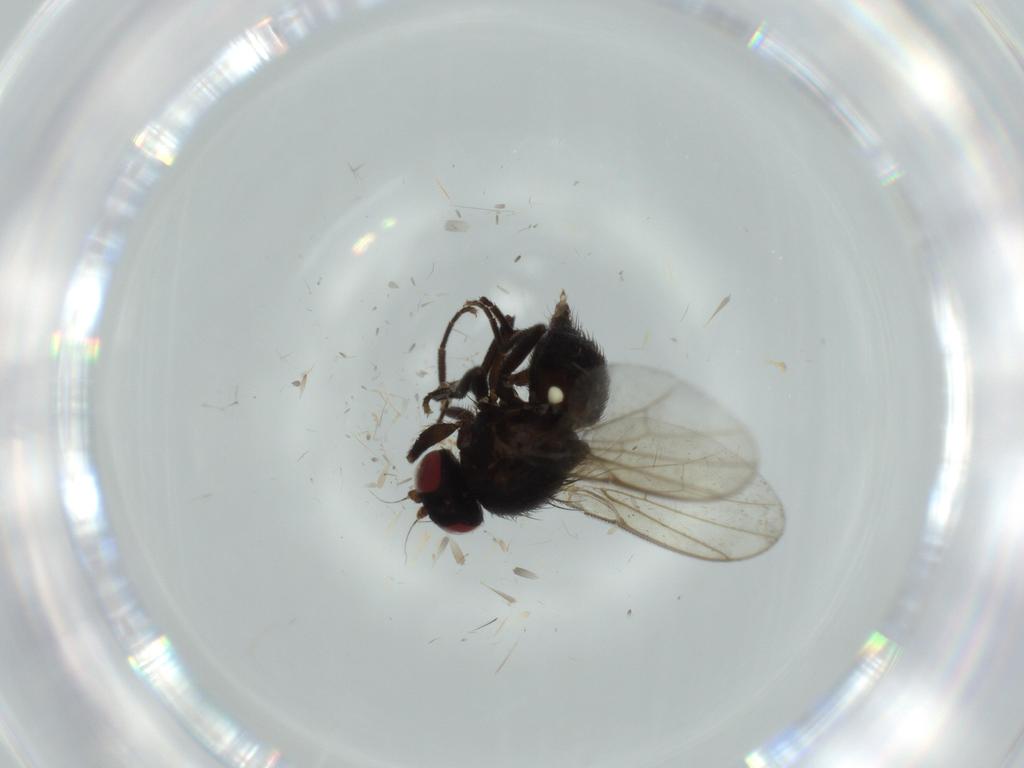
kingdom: Animalia
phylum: Arthropoda
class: Insecta
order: Diptera
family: Agromyzidae
